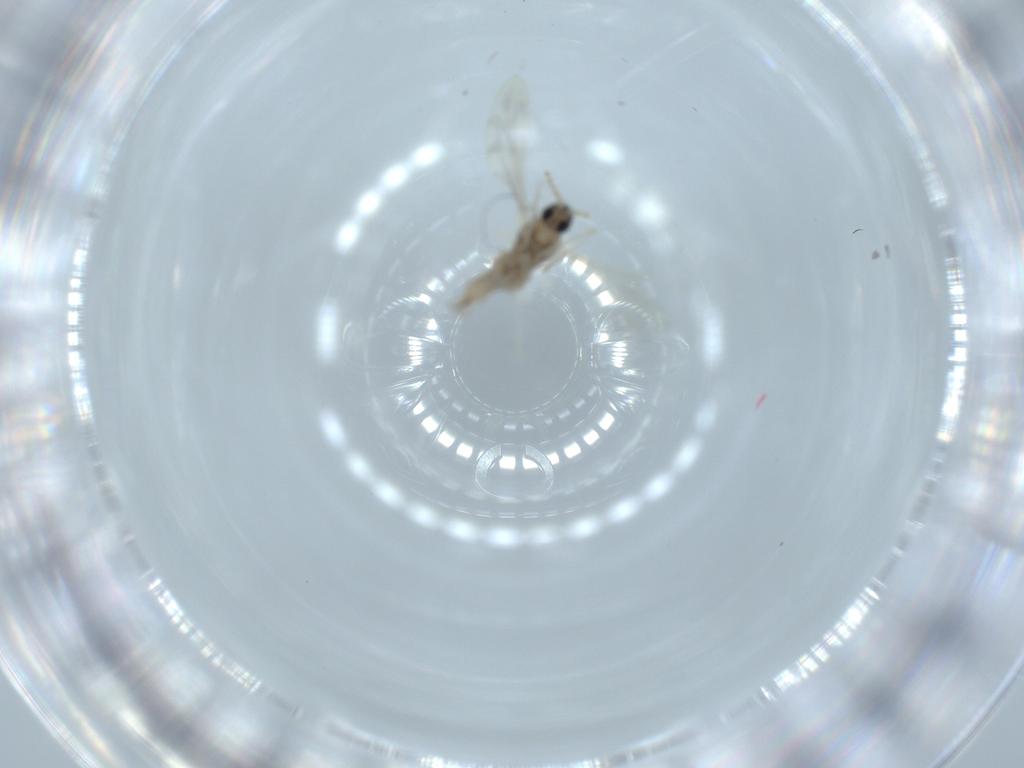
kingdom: Animalia
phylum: Arthropoda
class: Insecta
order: Diptera
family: Cecidomyiidae
